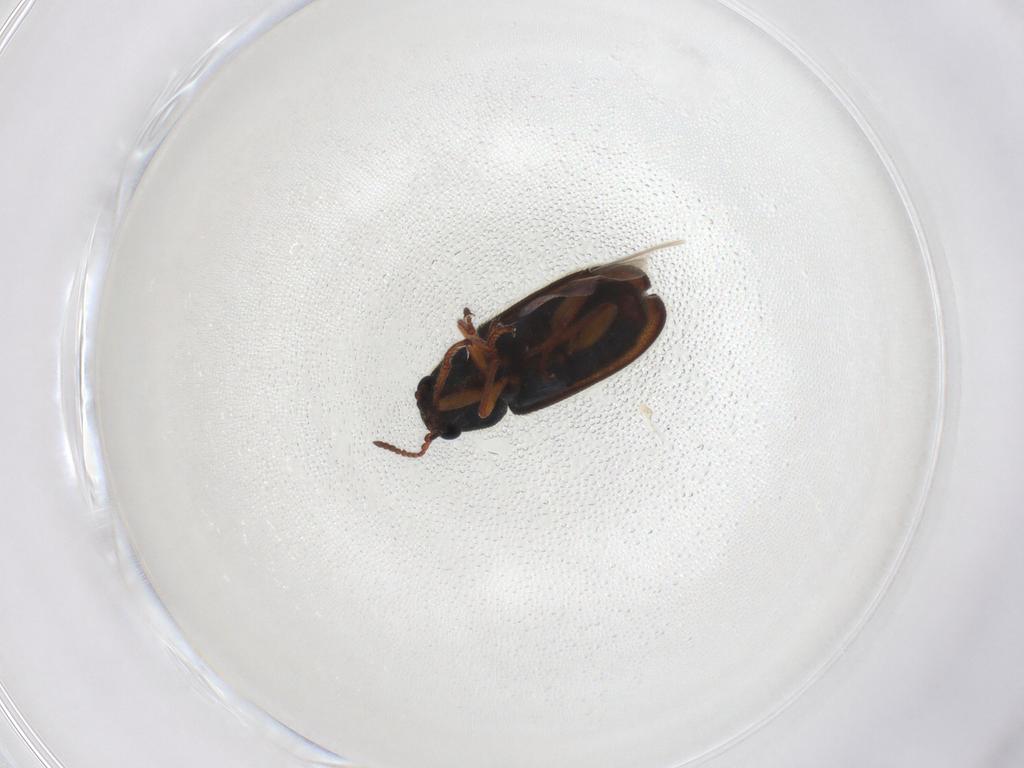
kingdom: Animalia
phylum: Arthropoda
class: Insecta
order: Coleoptera
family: Melyridae
